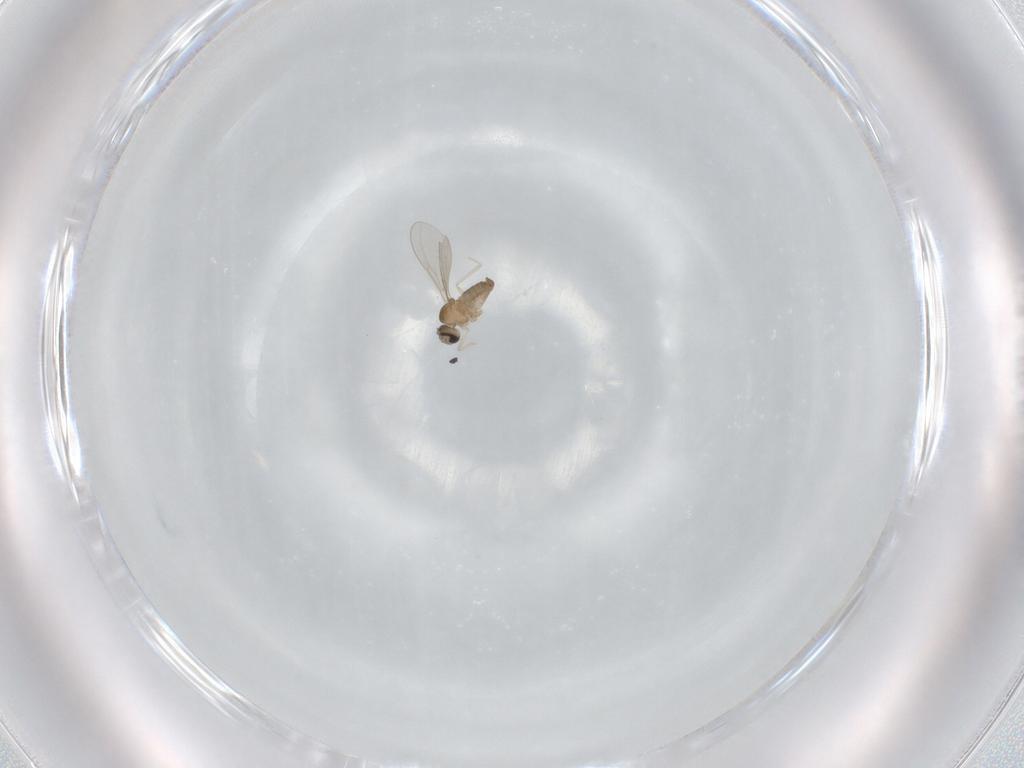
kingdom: Animalia
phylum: Arthropoda
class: Insecta
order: Diptera
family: Cecidomyiidae
